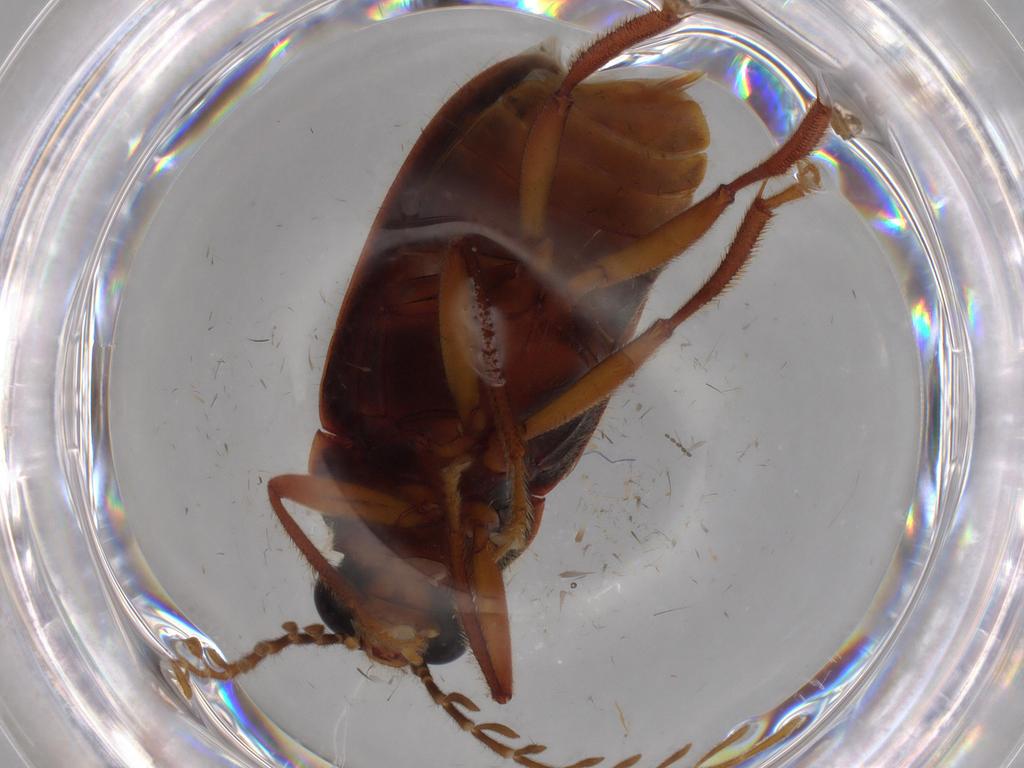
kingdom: Animalia
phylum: Arthropoda
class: Insecta
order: Coleoptera
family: Ptilodactylidae
